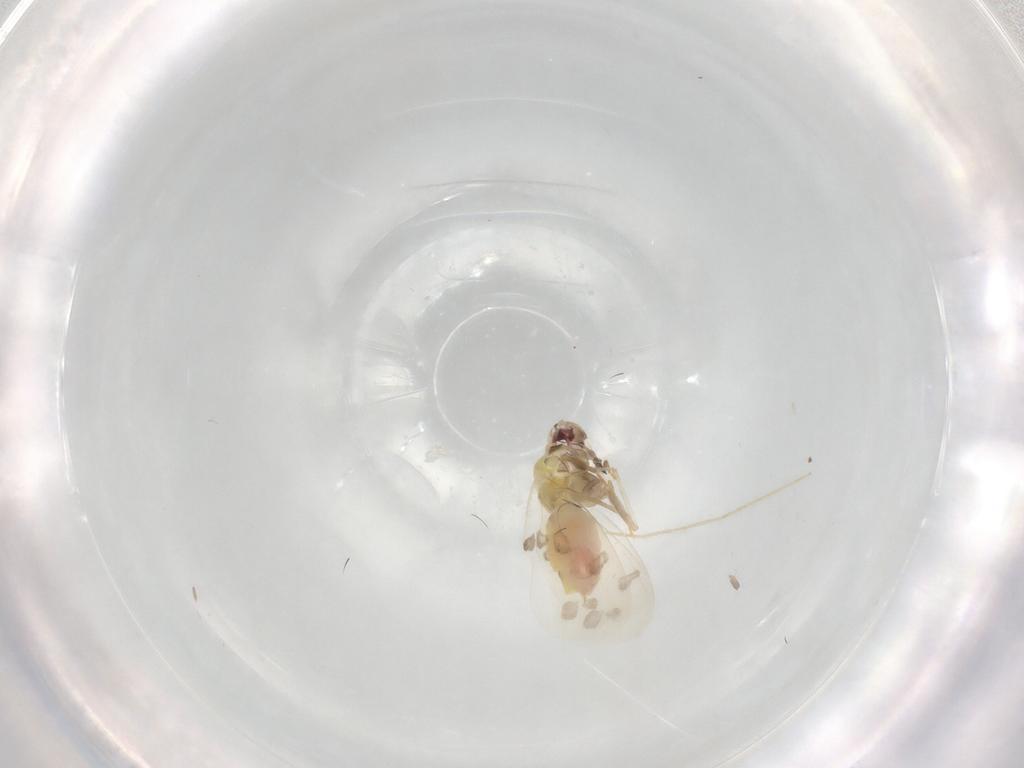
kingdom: Animalia
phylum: Arthropoda
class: Insecta
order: Hemiptera
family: Aleyrodidae
